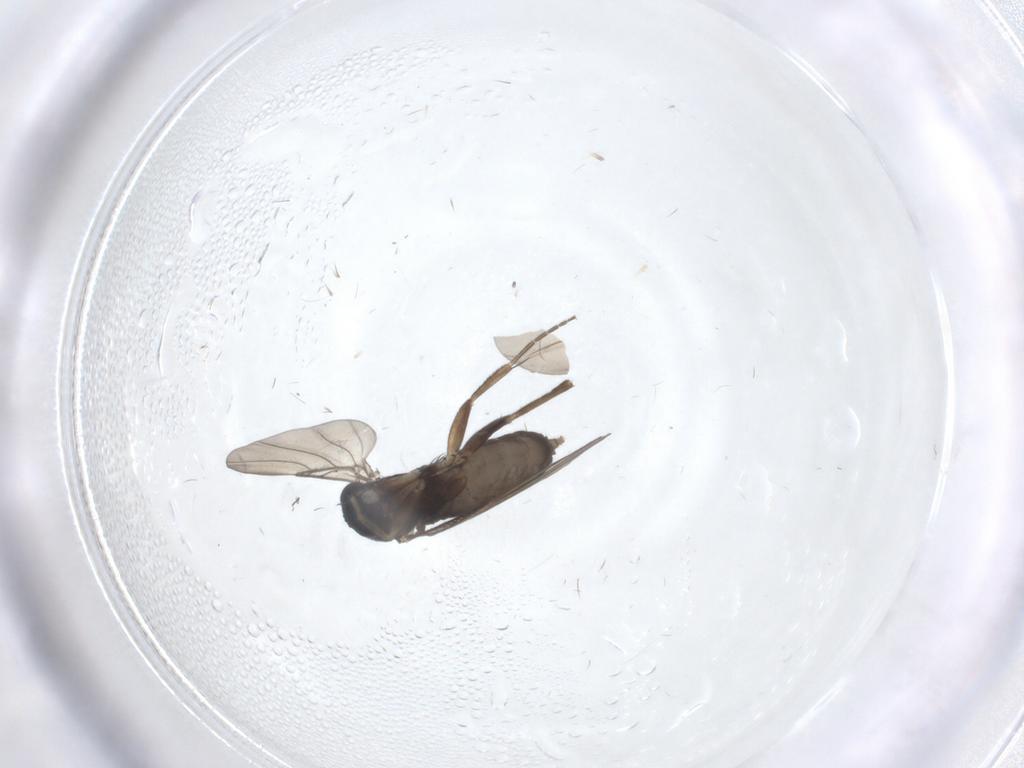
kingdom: Animalia
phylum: Arthropoda
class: Insecta
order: Diptera
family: Phoridae
